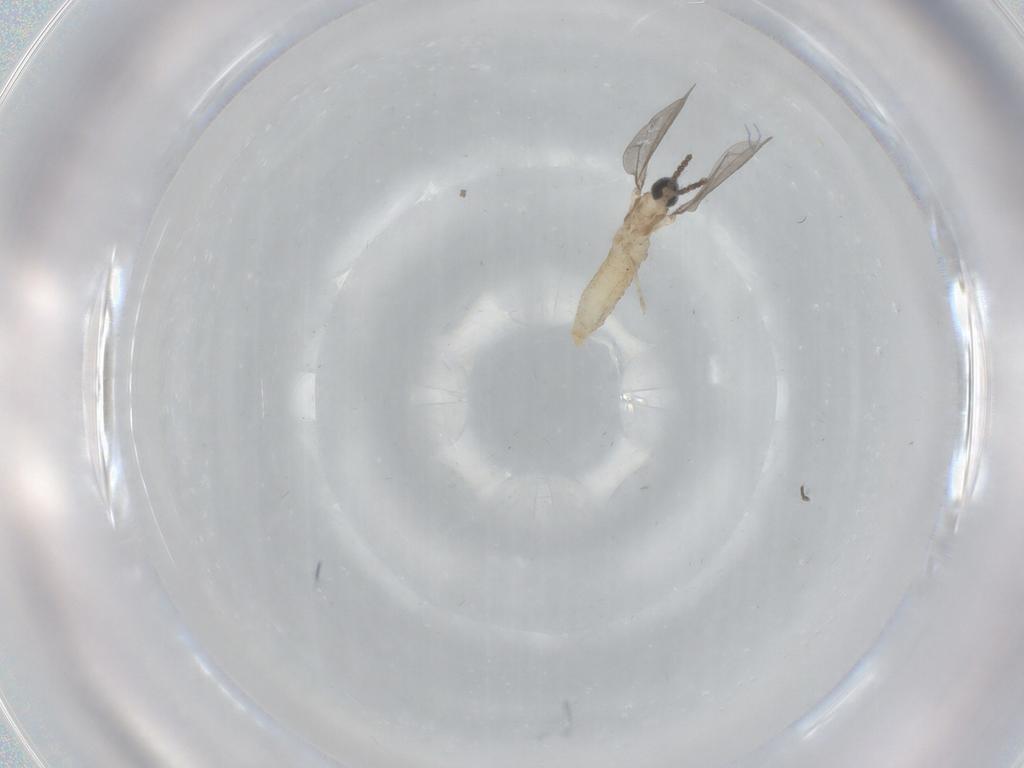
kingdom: Animalia
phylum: Arthropoda
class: Insecta
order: Diptera
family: Cecidomyiidae
